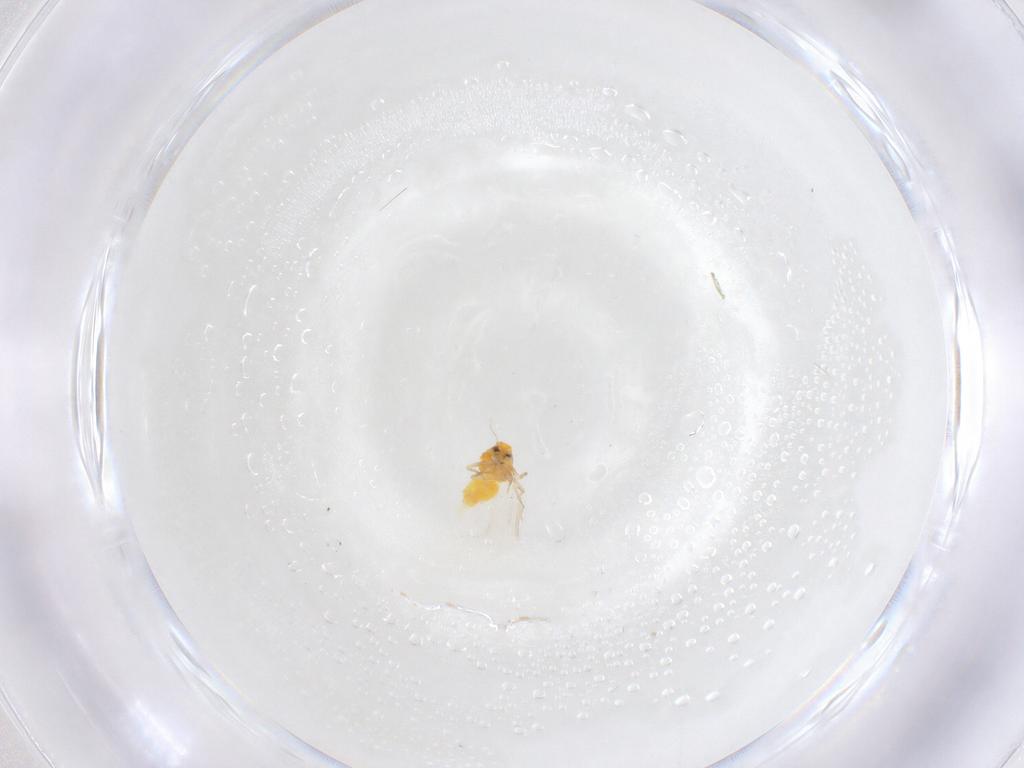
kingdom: Animalia
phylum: Arthropoda
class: Insecta
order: Hemiptera
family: Aleyrodidae
